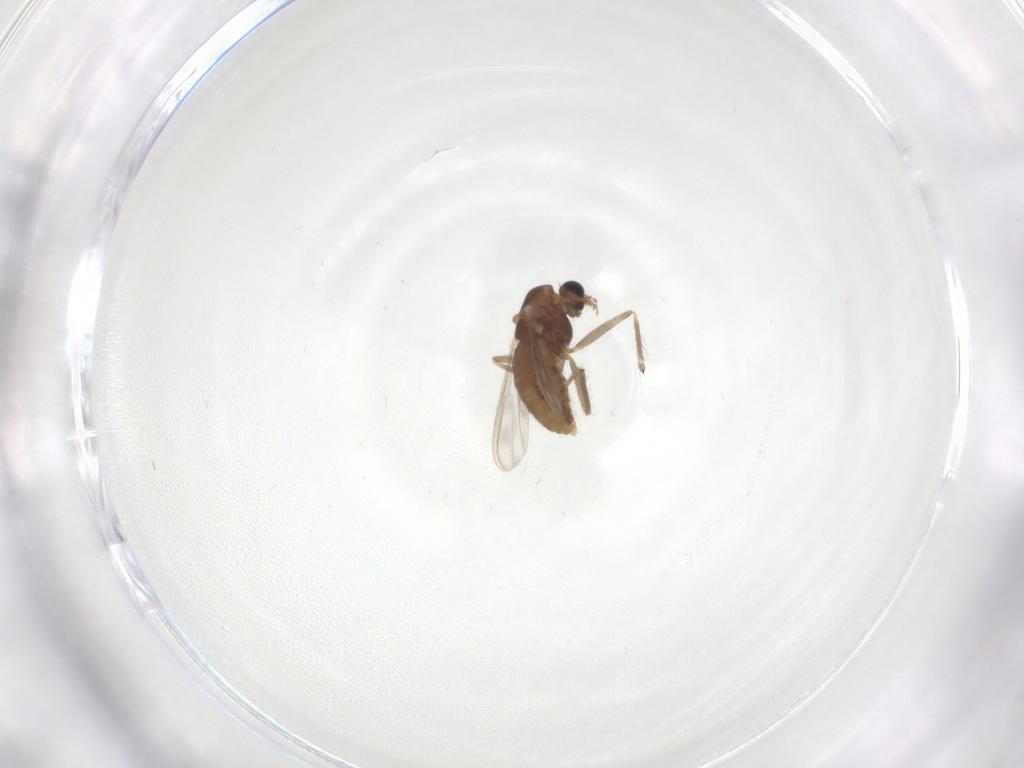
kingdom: Animalia
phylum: Arthropoda
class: Insecta
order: Diptera
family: Chironomidae
